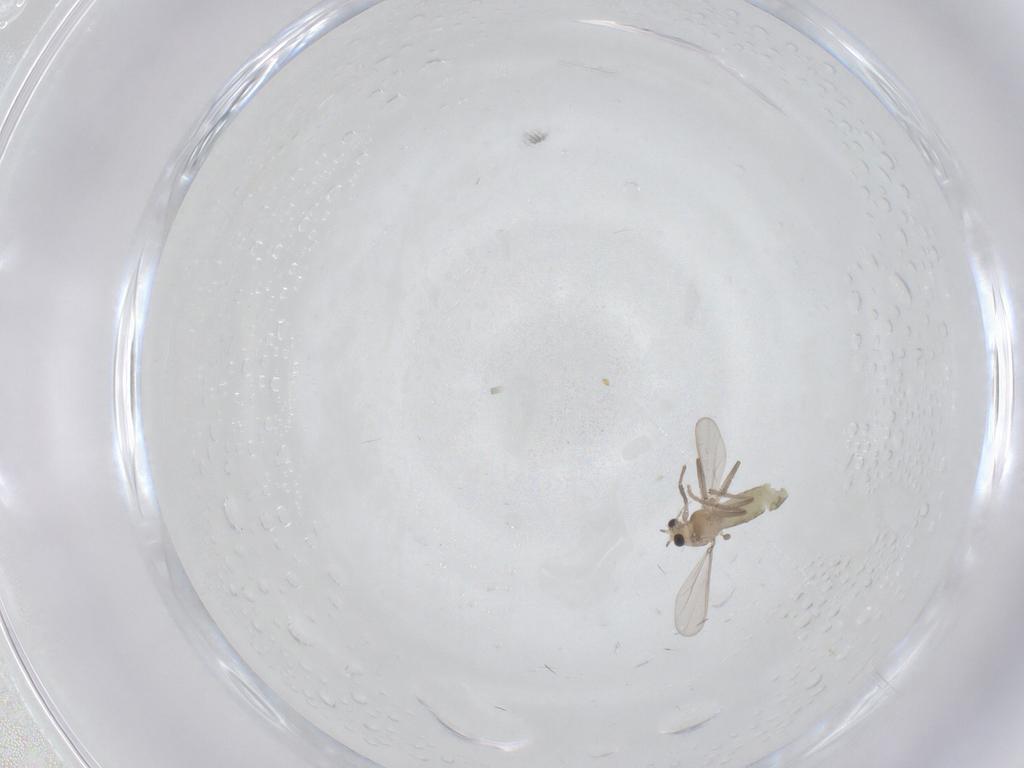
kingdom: Animalia
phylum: Arthropoda
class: Insecta
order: Diptera
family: Chironomidae
